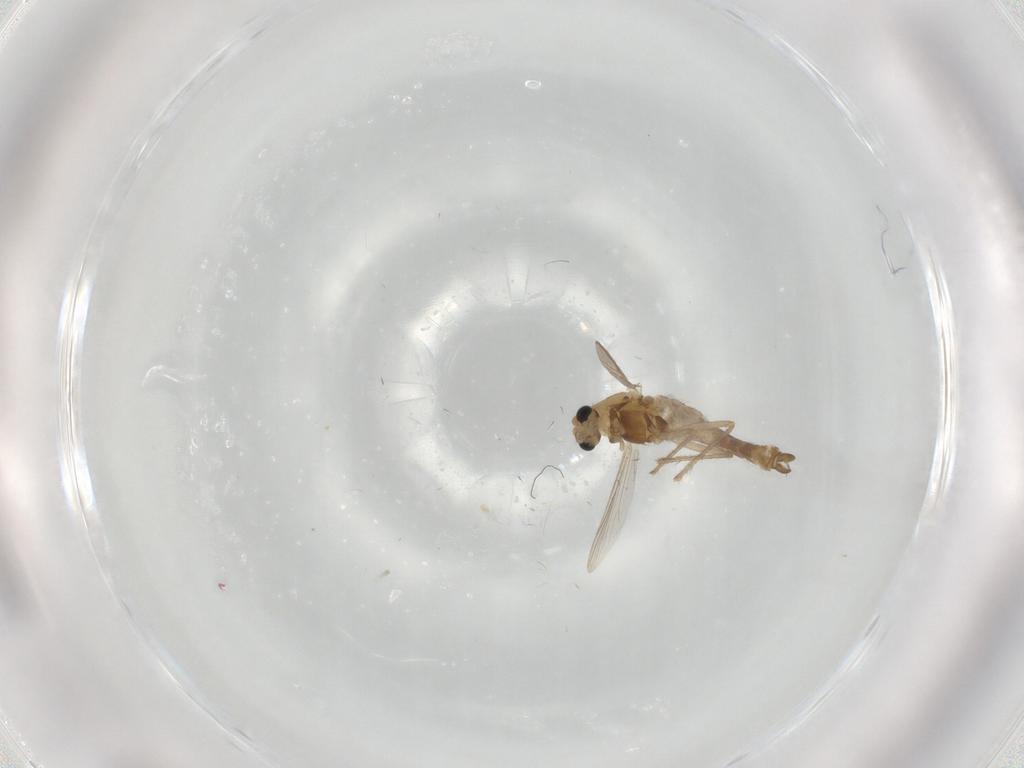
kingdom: Animalia
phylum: Arthropoda
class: Insecta
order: Diptera
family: Chironomidae
